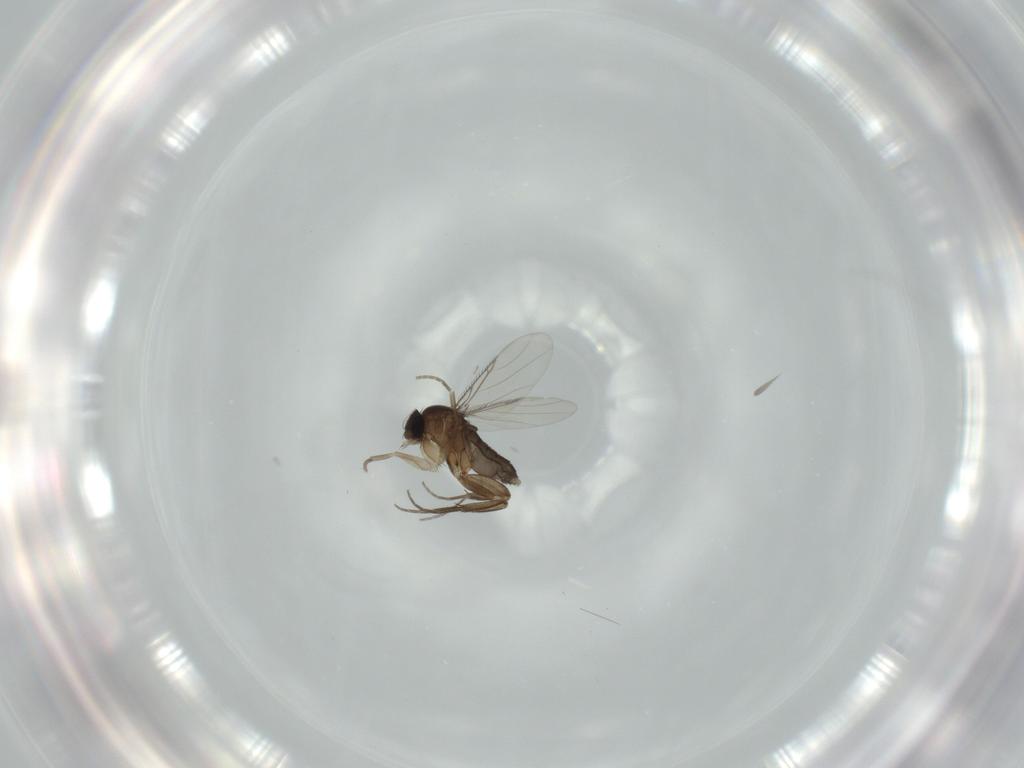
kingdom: Animalia
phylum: Arthropoda
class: Insecta
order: Diptera
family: Phoridae
